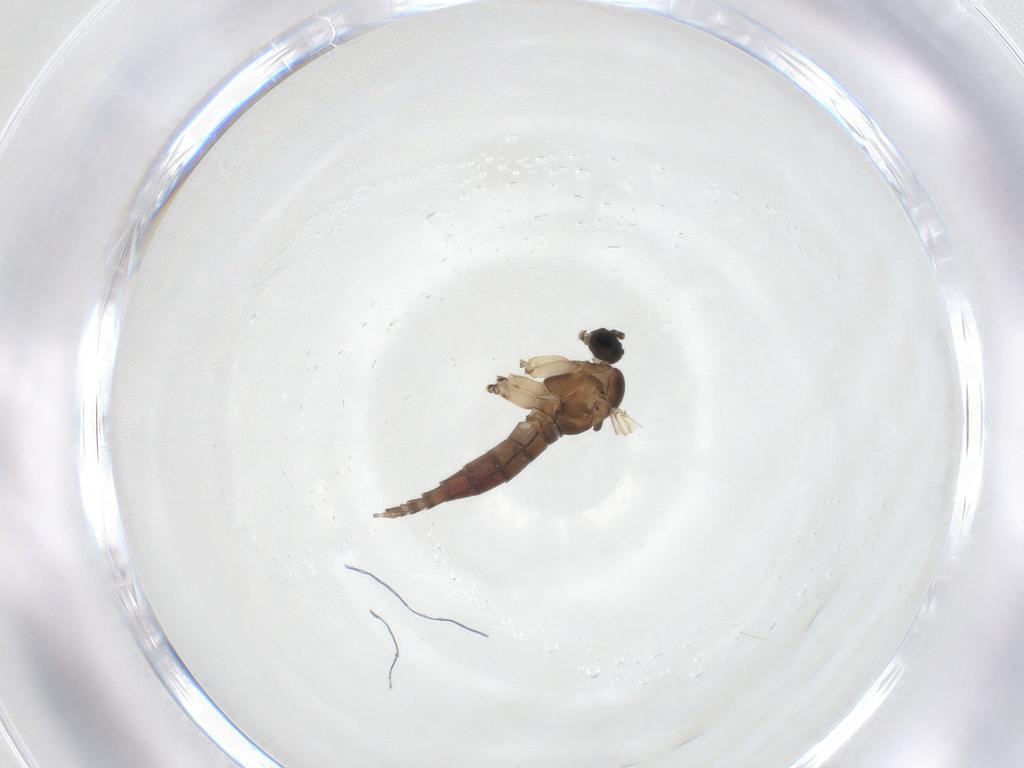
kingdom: Animalia
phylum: Arthropoda
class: Insecta
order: Diptera
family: Sciaridae
